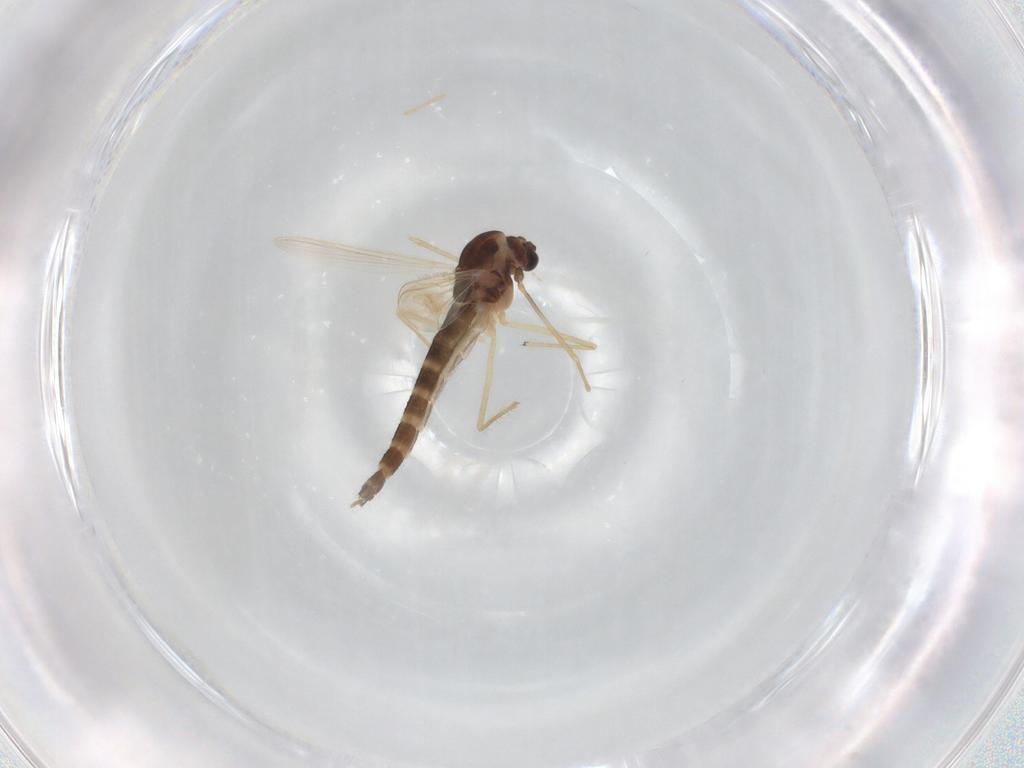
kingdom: Animalia
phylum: Arthropoda
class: Insecta
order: Diptera
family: Chironomidae
